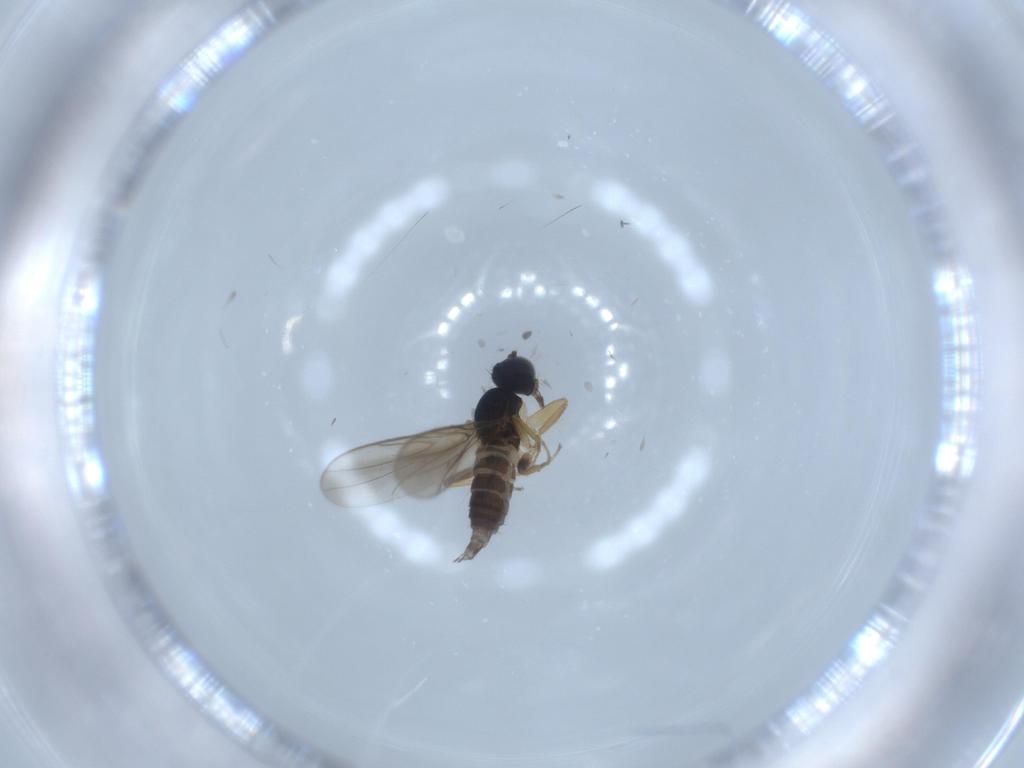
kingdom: Animalia
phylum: Arthropoda
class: Insecta
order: Diptera
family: Hybotidae
